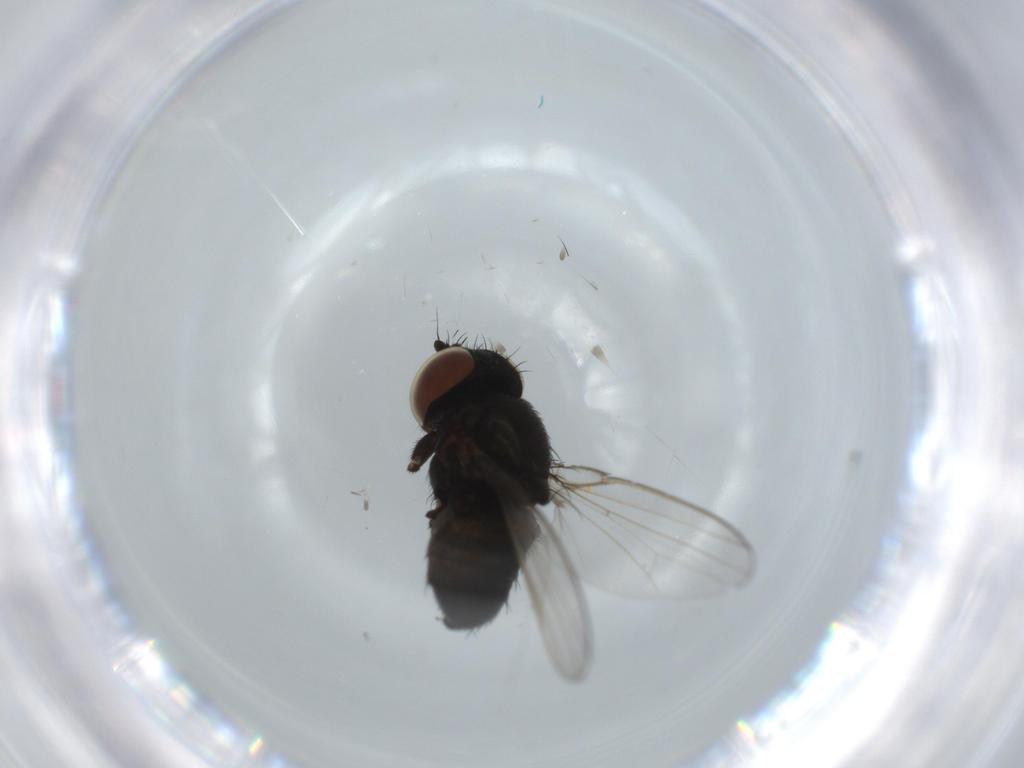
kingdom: Animalia
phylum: Arthropoda
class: Insecta
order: Diptera
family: Milichiidae
